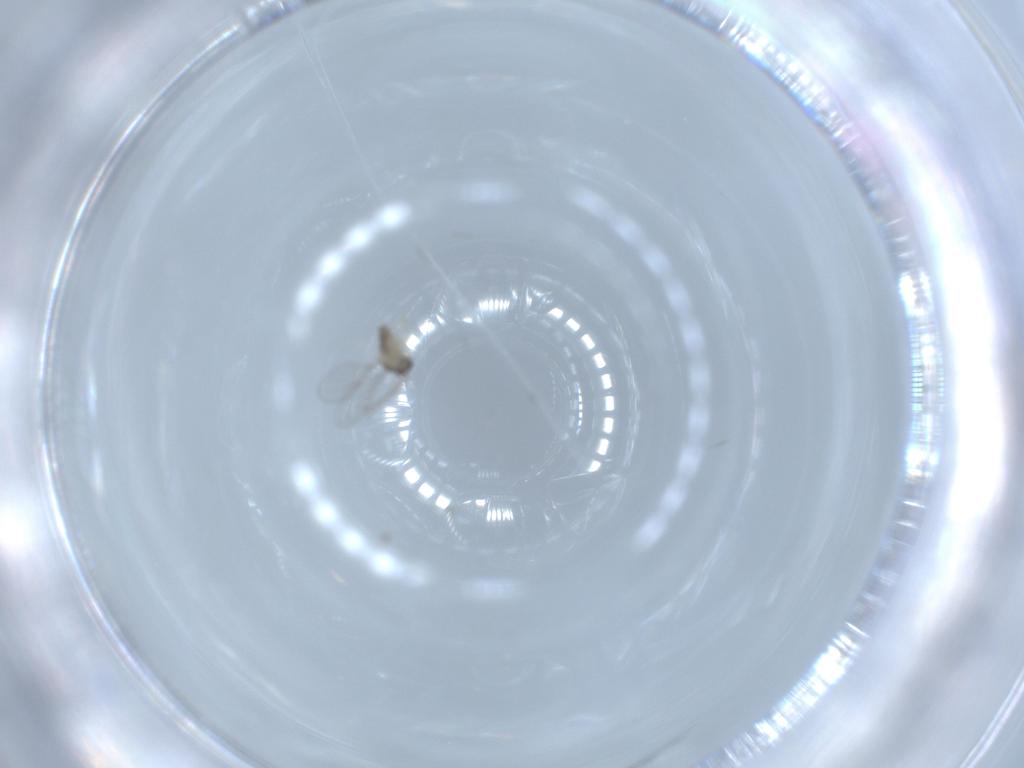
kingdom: Animalia
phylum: Arthropoda
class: Insecta
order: Diptera
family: Cecidomyiidae
